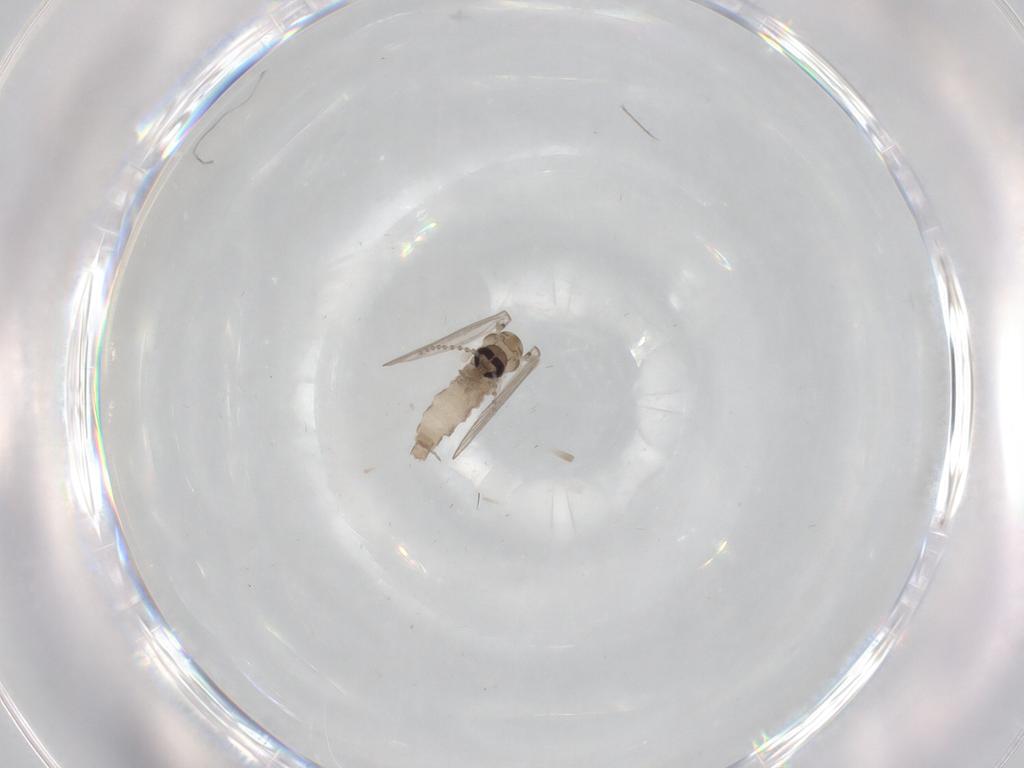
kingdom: Animalia
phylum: Arthropoda
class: Insecta
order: Diptera
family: Psychodidae
